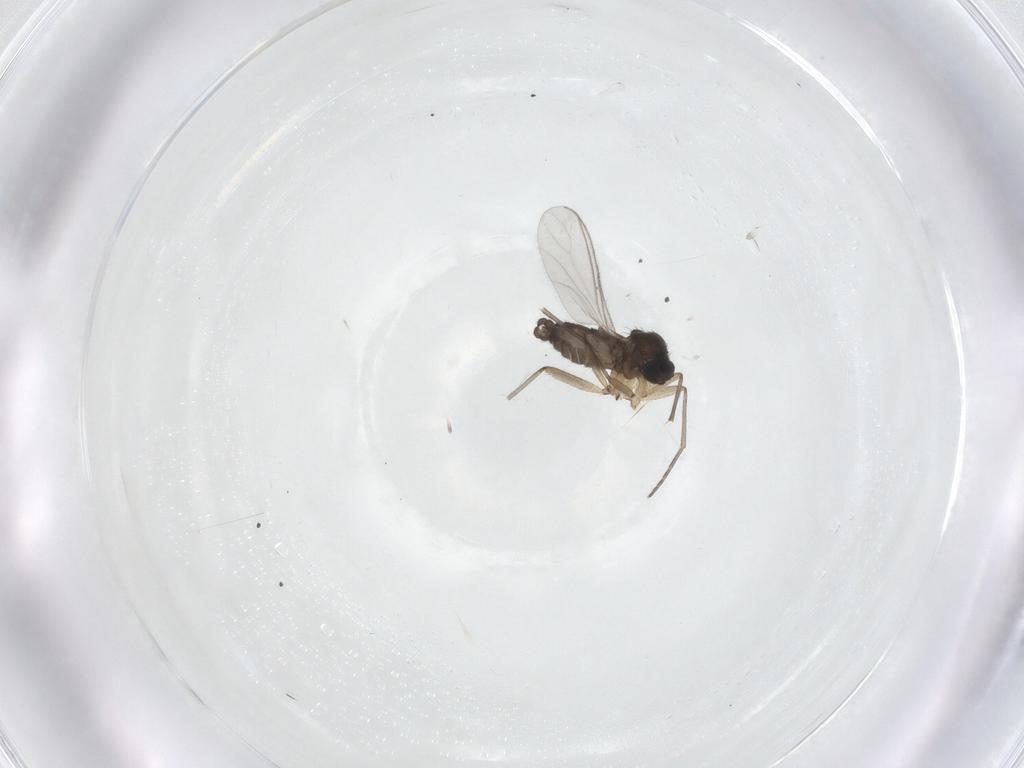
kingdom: Animalia
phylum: Arthropoda
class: Insecta
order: Diptera
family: Sciaridae
